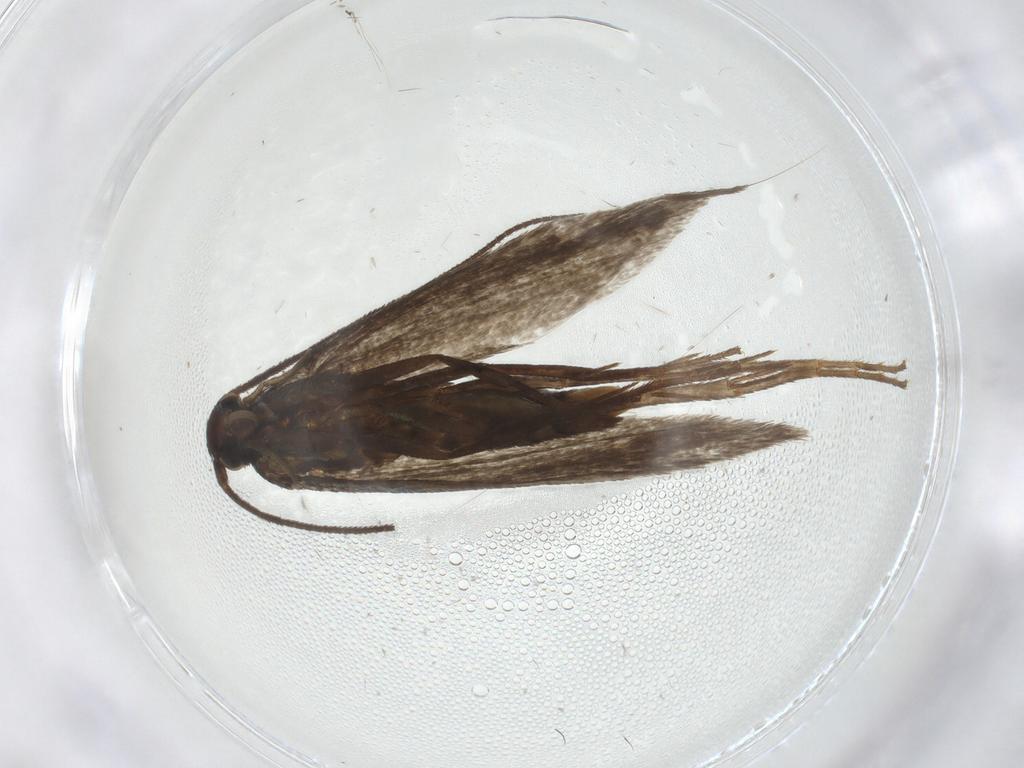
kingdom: Animalia
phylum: Arthropoda
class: Insecta
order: Lepidoptera
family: Argyresthiidae
